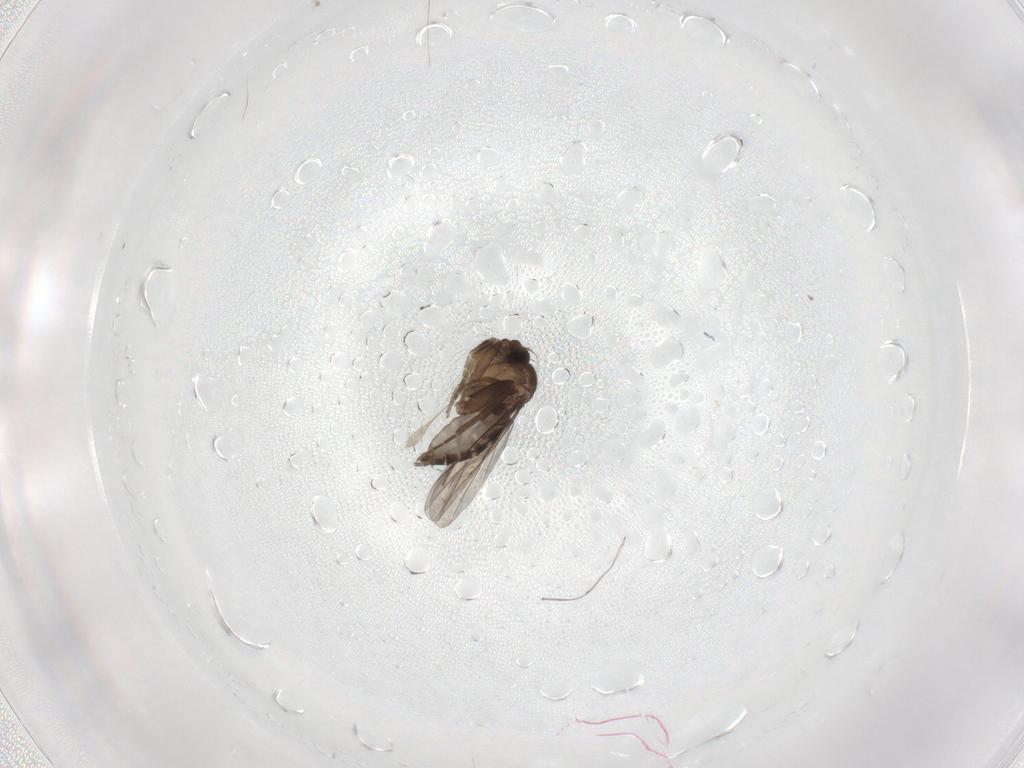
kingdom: Animalia
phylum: Arthropoda
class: Insecta
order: Diptera
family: Phoridae
